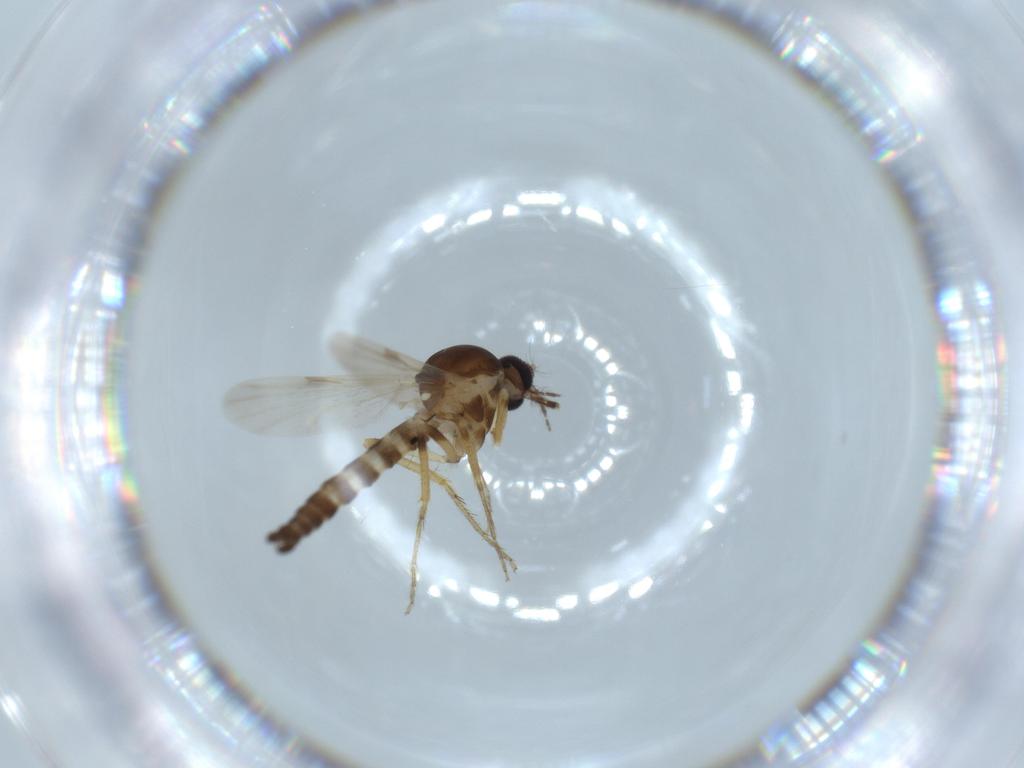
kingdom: Animalia
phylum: Arthropoda
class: Insecta
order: Diptera
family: Ceratopogonidae
